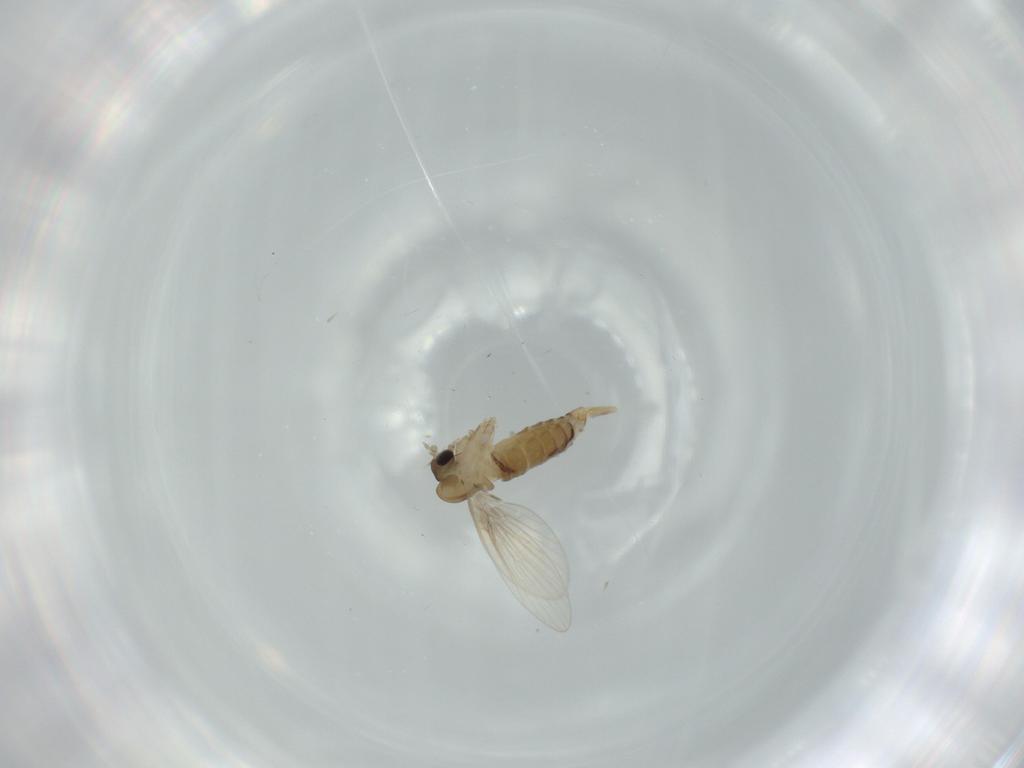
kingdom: Animalia
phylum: Arthropoda
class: Insecta
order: Diptera
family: Psychodidae
